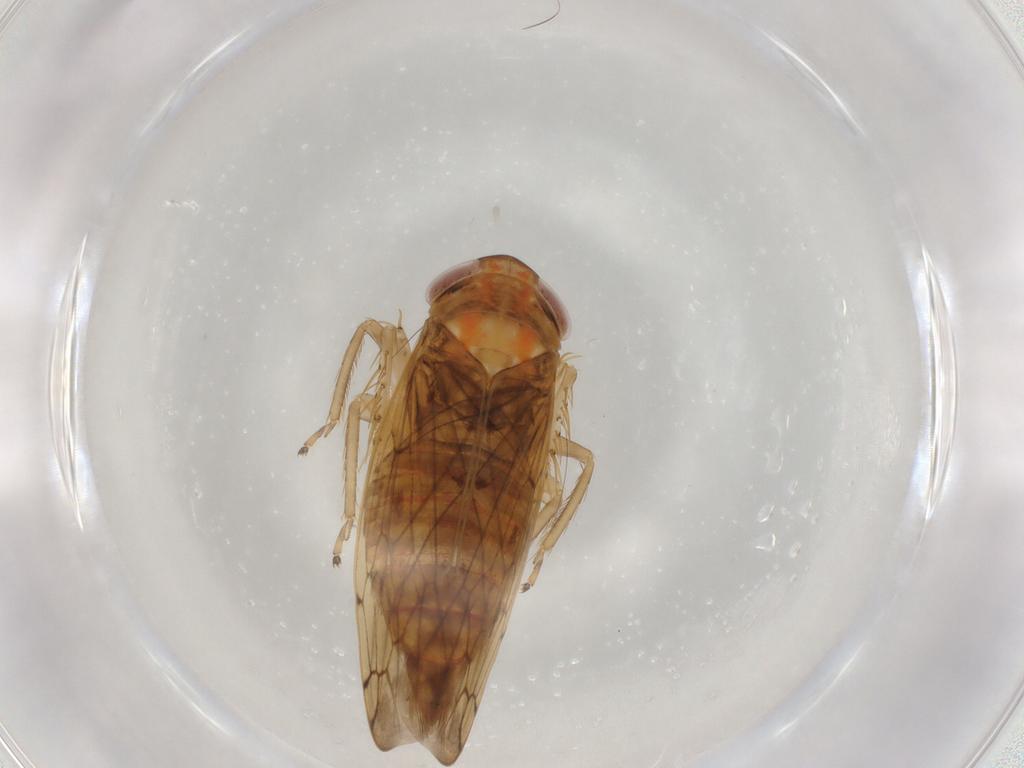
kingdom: Animalia
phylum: Arthropoda
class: Insecta
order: Hemiptera
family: Cicadellidae
